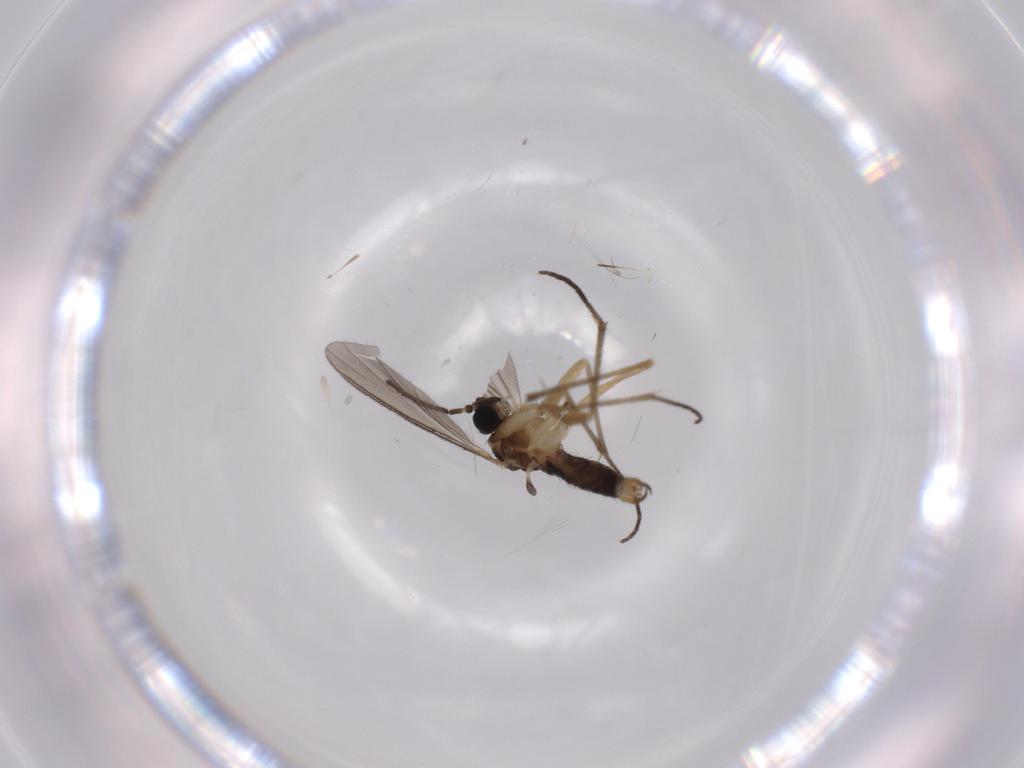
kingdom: Animalia
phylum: Arthropoda
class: Insecta
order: Diptera
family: Sciaridae
